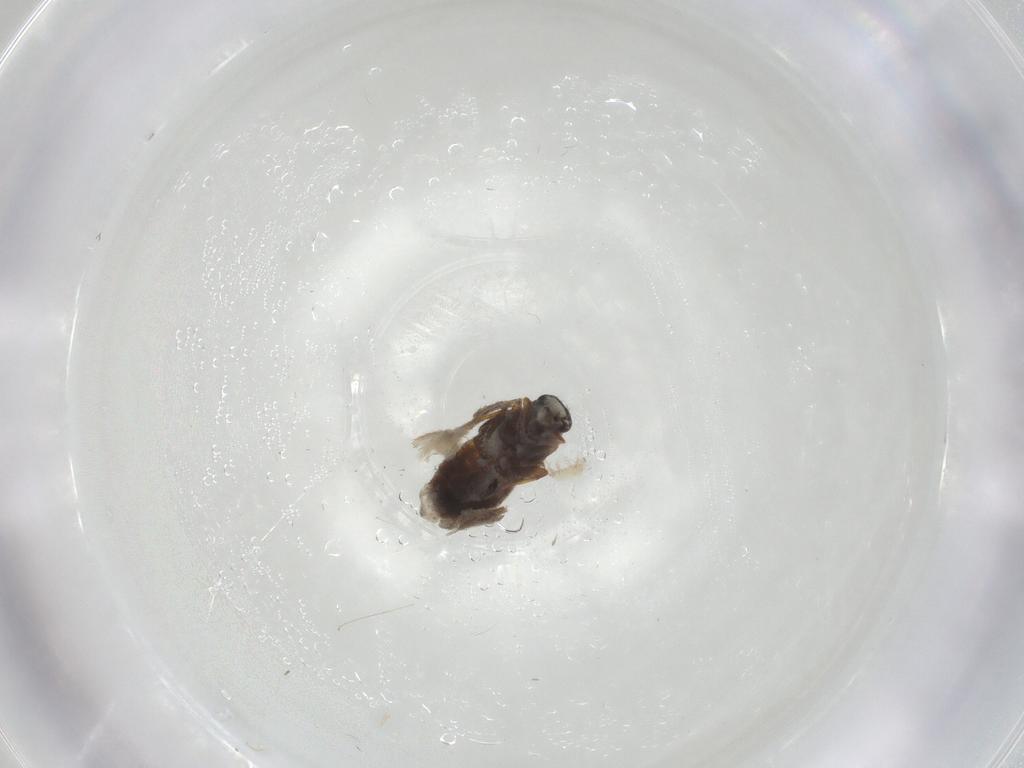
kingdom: Animalia
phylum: Arthropoda
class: Insecta
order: Coleoptera
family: Staphylinidae
